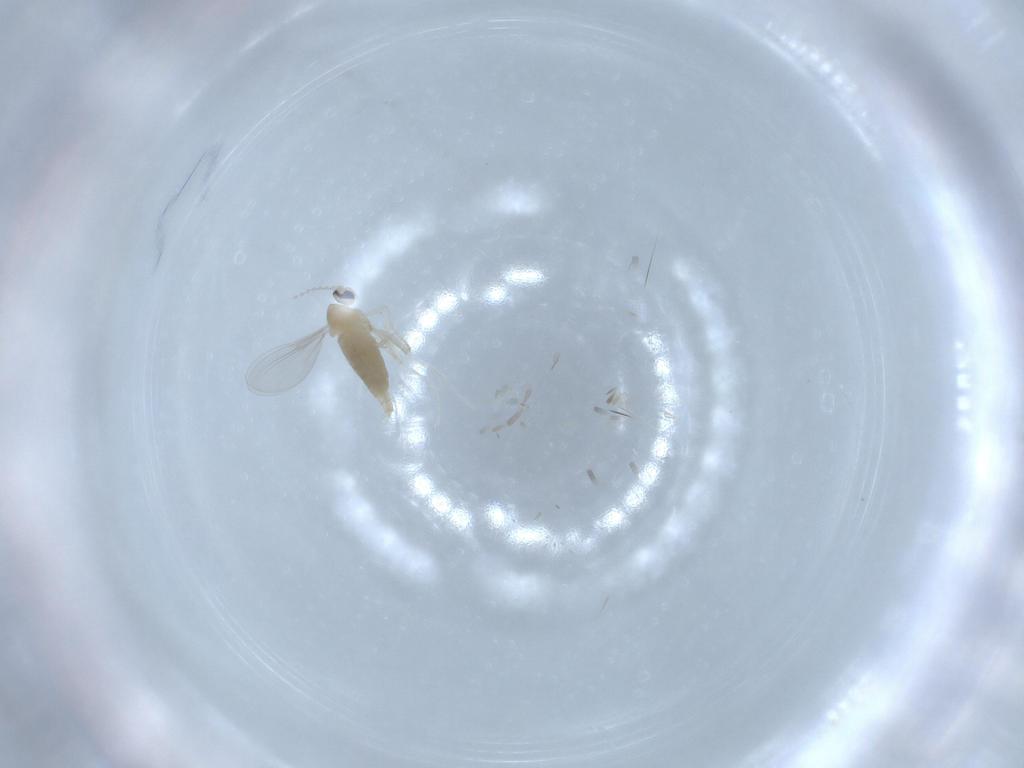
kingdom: Animalia
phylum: Arthropoda
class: Insecta
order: Diptera
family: Cecidomyiidae
